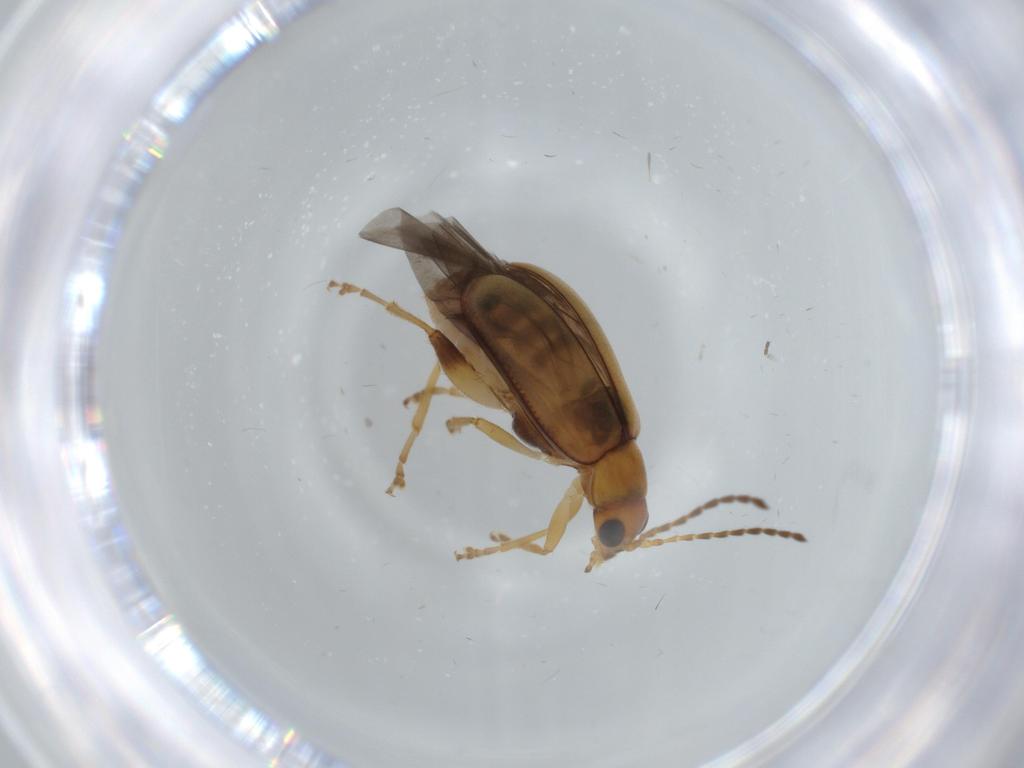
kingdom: Animalia
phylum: Arthropoda
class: Insecta
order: Coleoptera
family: Chrysomelidae
